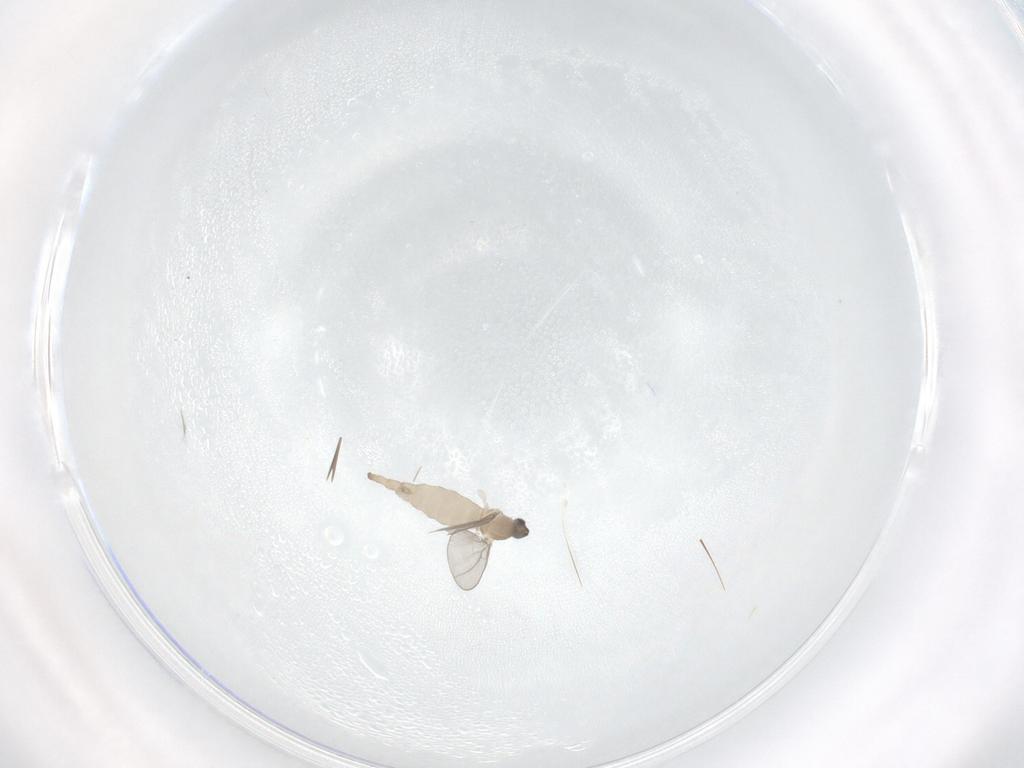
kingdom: Animalia
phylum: Arthropoda
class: Insecta
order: Diptera
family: Cecidomyiidae
